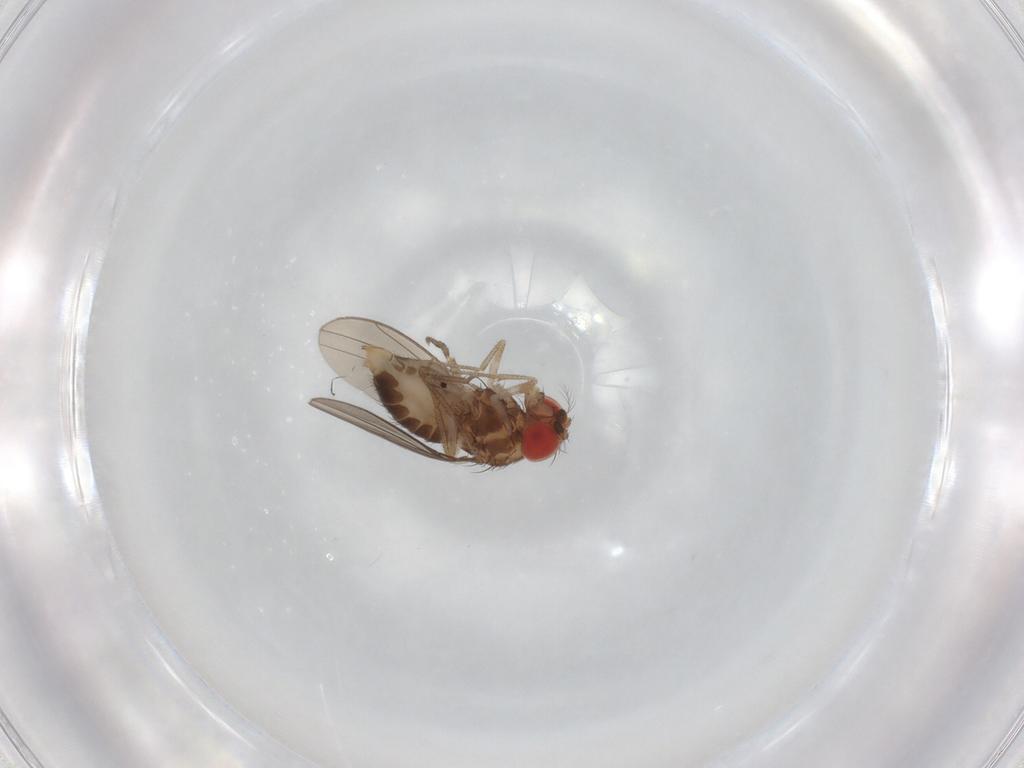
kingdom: Animalia
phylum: Arthropoda
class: Insecta
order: Diptera
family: Drosophilidae
